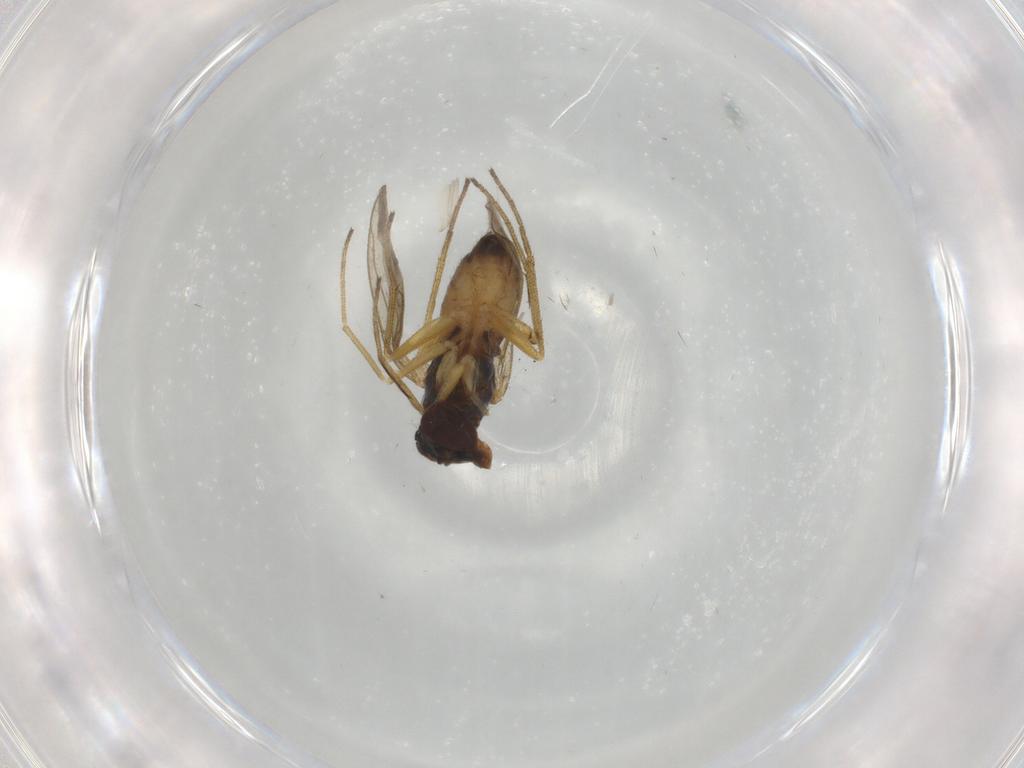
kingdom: Animalia
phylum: Arthropoda
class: Insecta
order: Diptera
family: Dolichopodidae
